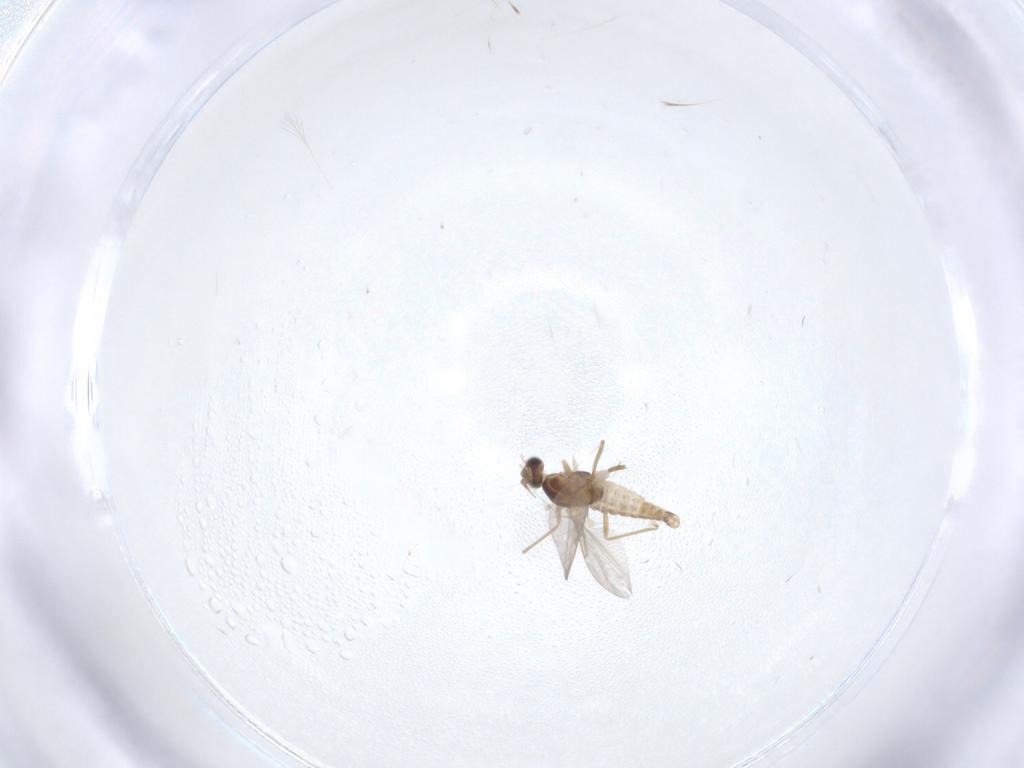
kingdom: Animalia
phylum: Arthropoda
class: Insecta
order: Diptera
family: Cecidomyiidae
